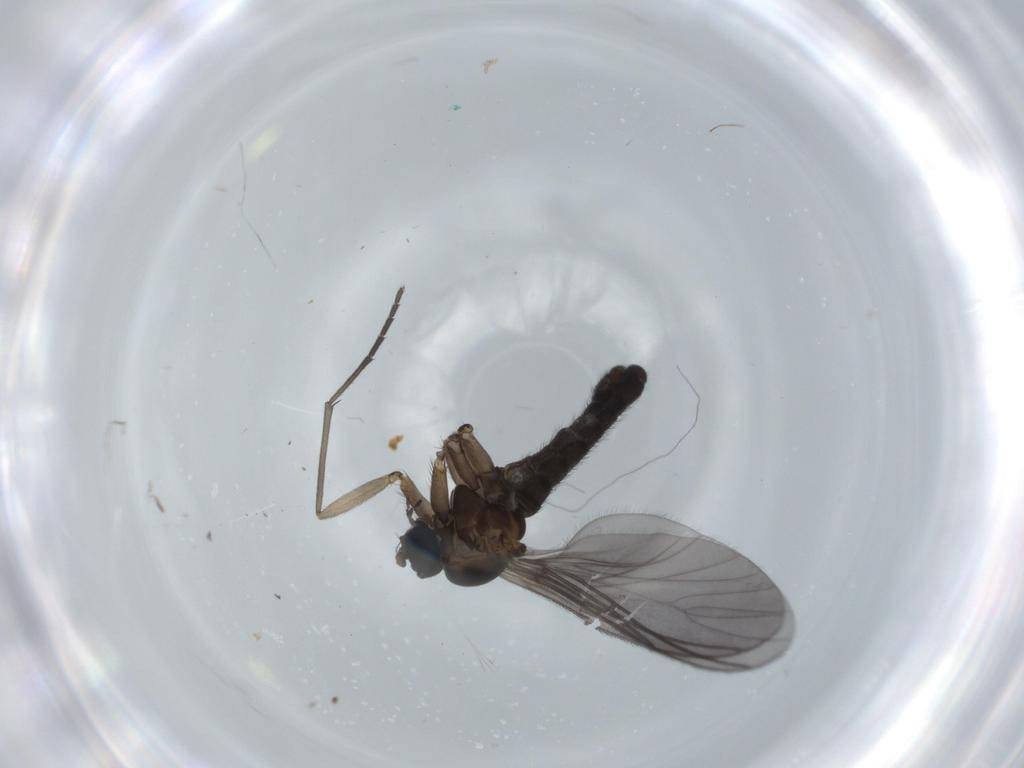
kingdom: Animalia
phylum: Arthropoda
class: Insecta
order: Diptera
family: Sciaridae
